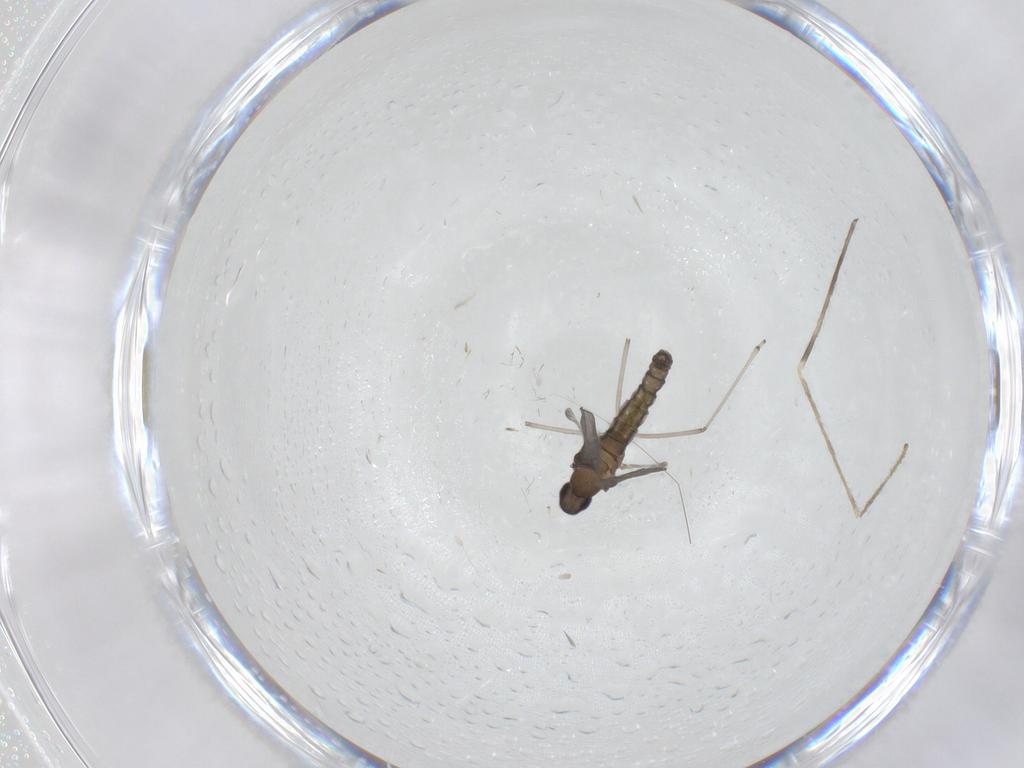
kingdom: Animalia
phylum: Arthropoda
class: Insecta
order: Diptera
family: Cecidomyiidae
